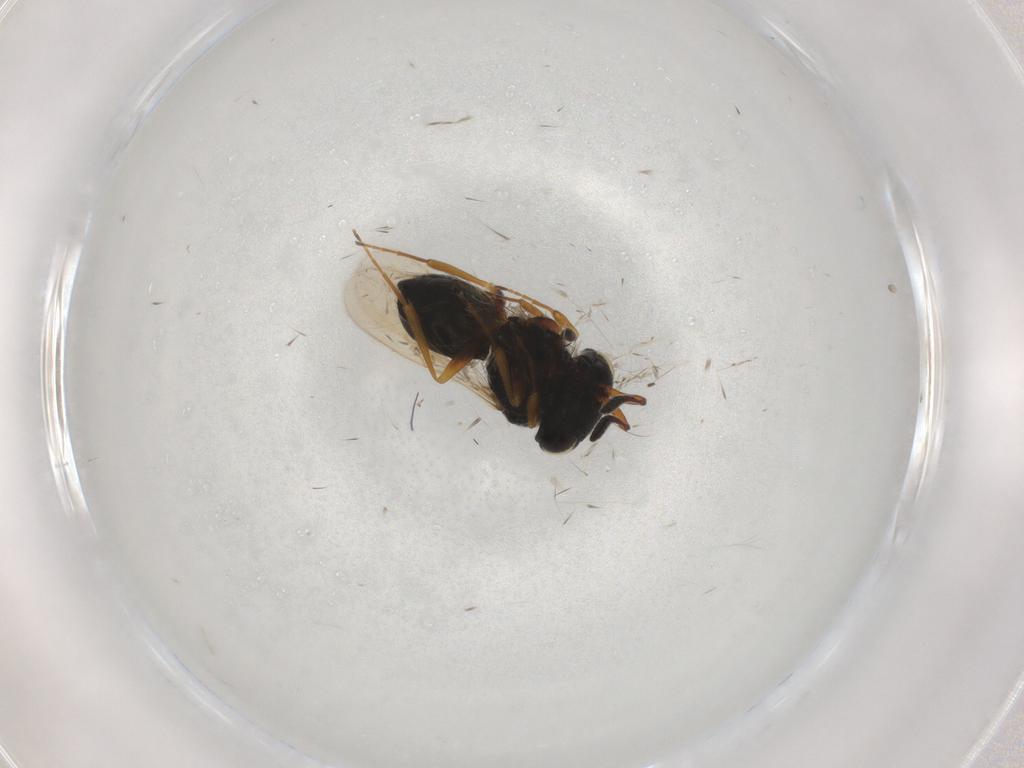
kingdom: Animalia
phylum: Arthropoda
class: Insecta
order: Hymenoptera
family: Scelionidae
